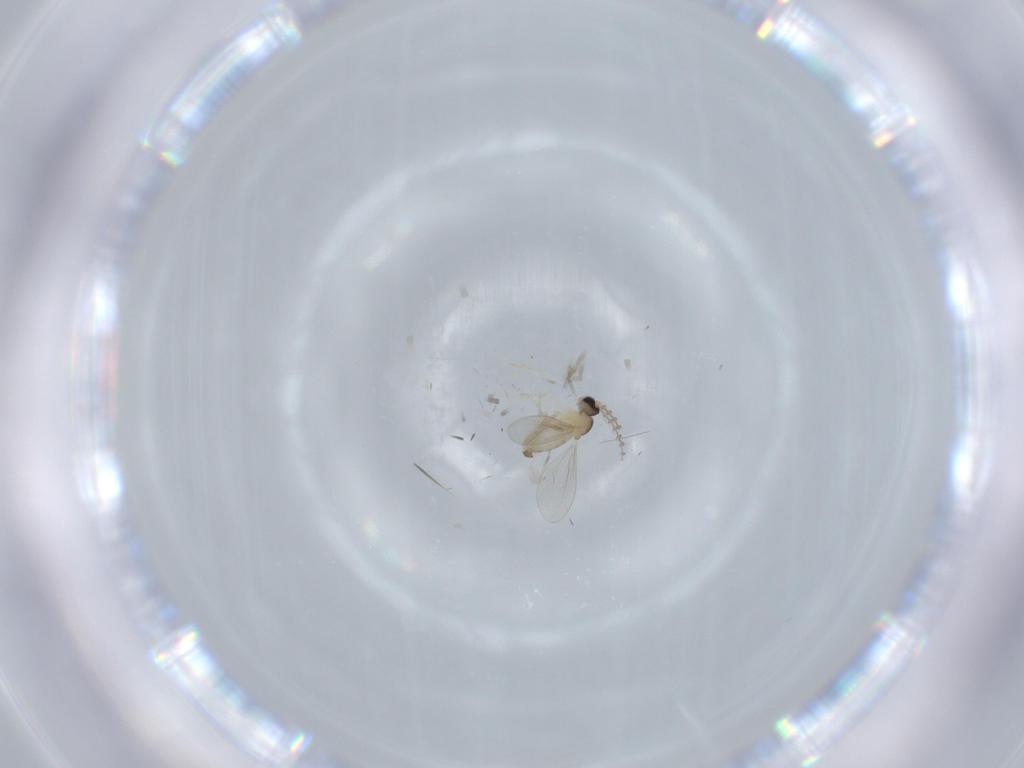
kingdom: Animalia
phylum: Arthropoda
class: Insecta
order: Diptera
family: Cecidomyiidae
